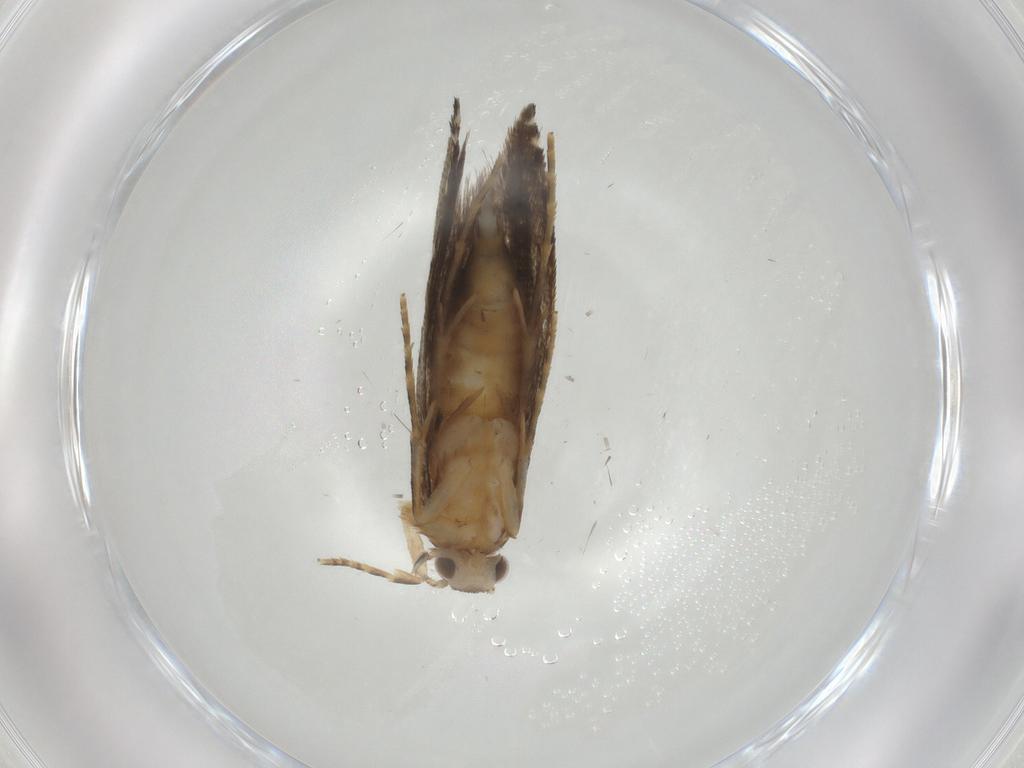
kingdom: Animalia
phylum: Arthropoda
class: Insecta
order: Lepidoptera
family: Tineidae
